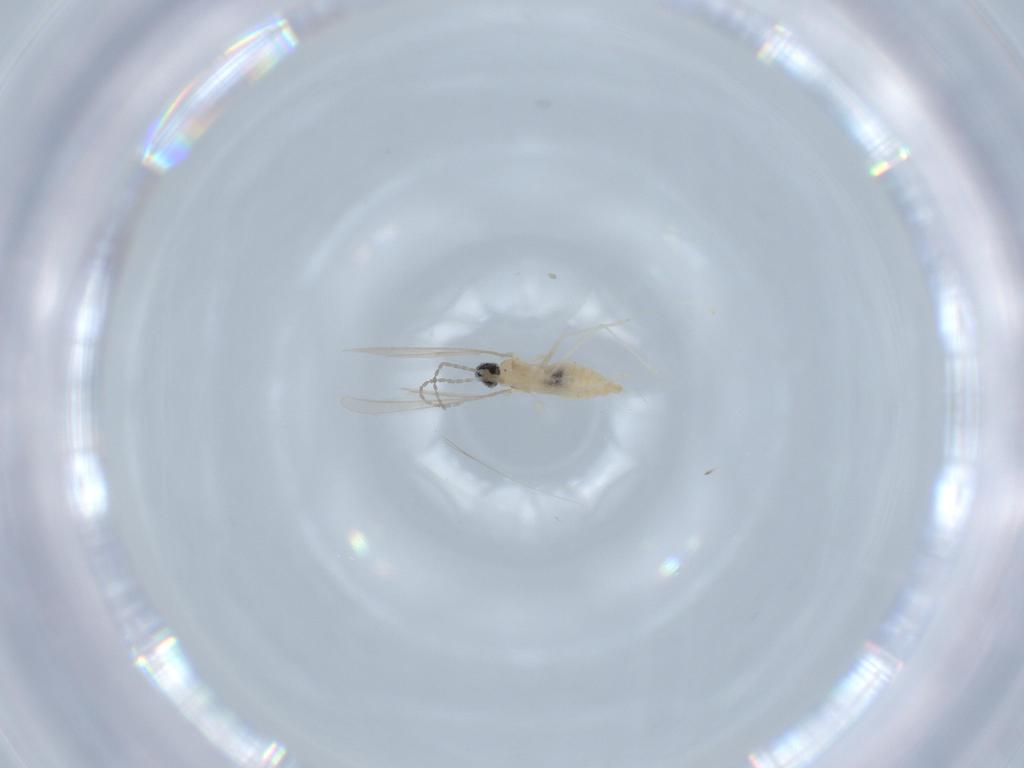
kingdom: Animalia
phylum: Arthropoda
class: Insecta
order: Diptera
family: Cecidomyiidae
